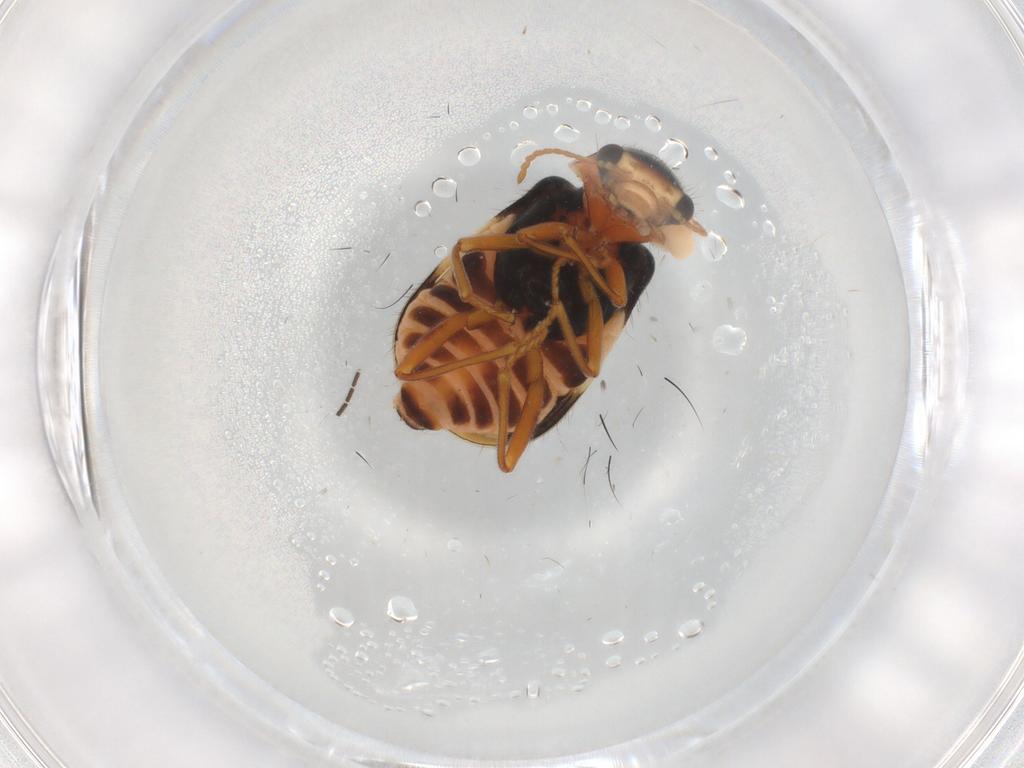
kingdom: Animalia
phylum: Arthropoda
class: Insecta
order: Coleoptera
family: Melyridae
